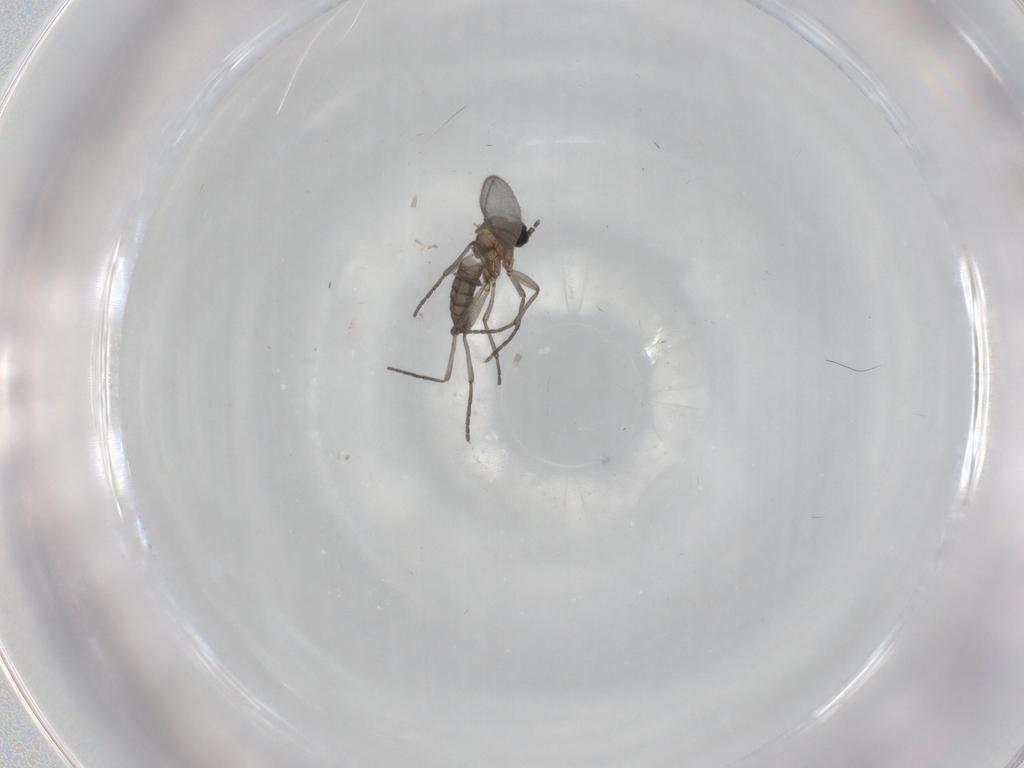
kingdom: Animalia
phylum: Arthropoda
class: Insecta
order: Diptera
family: Sciaridae
